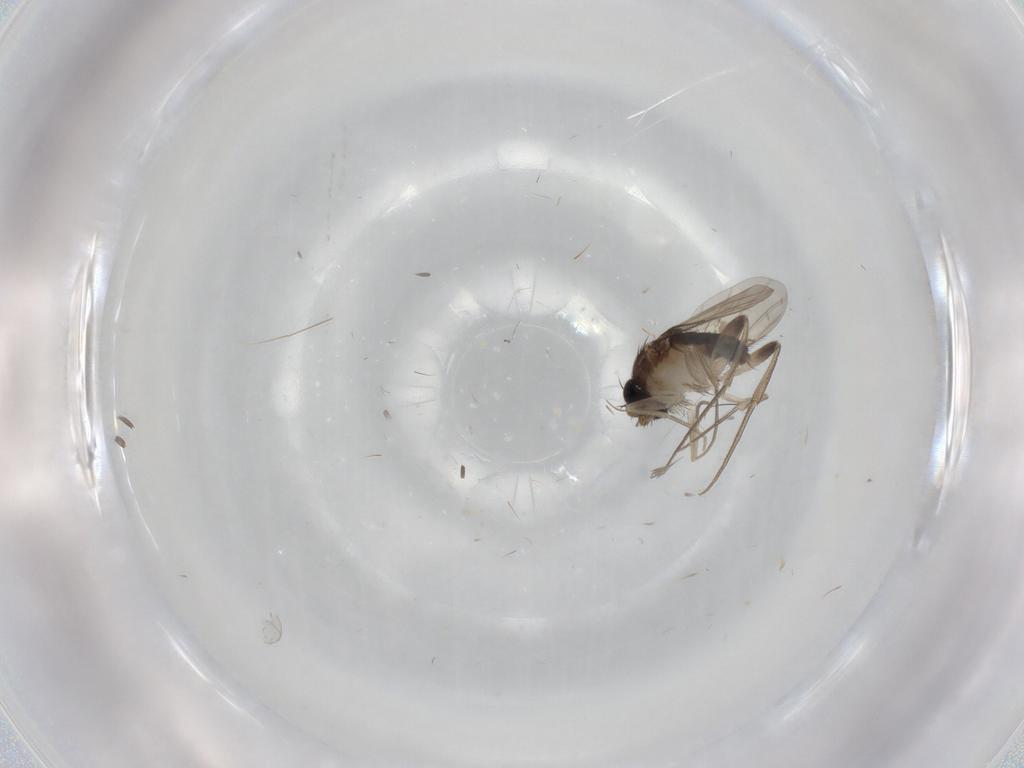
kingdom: Animalia
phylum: Arthropoda
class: Insecta
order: Diptera
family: Phoridae
